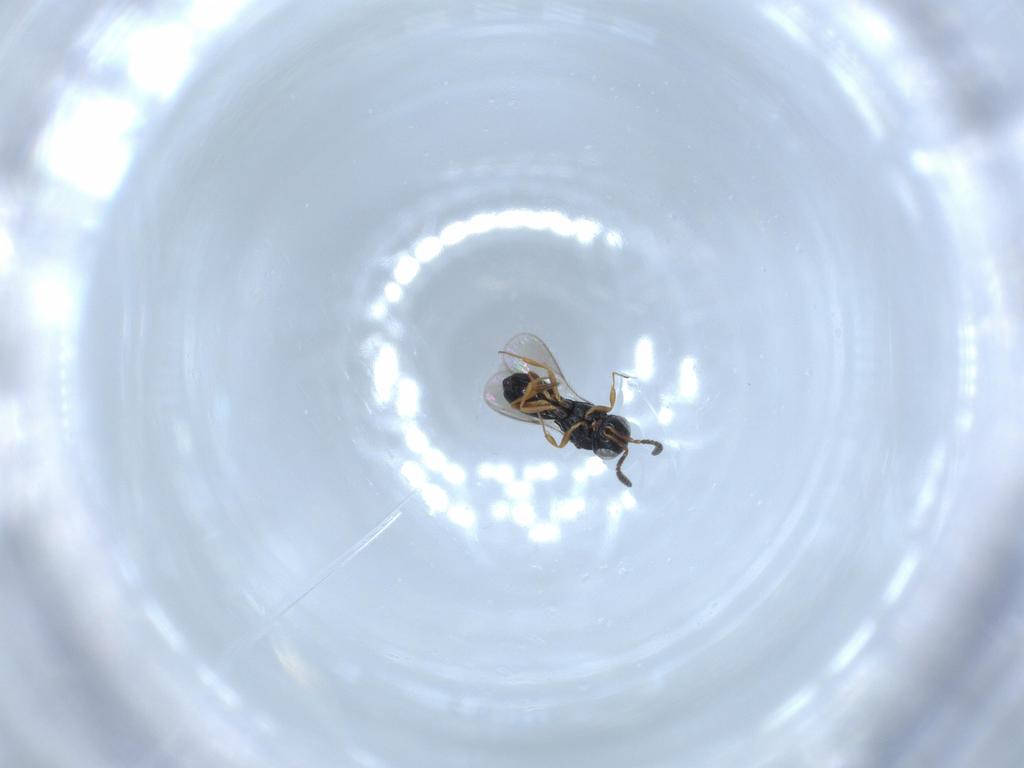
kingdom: Animalia
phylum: Arthropoda
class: Insecta
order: Hymenoptera
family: Scelionidae
